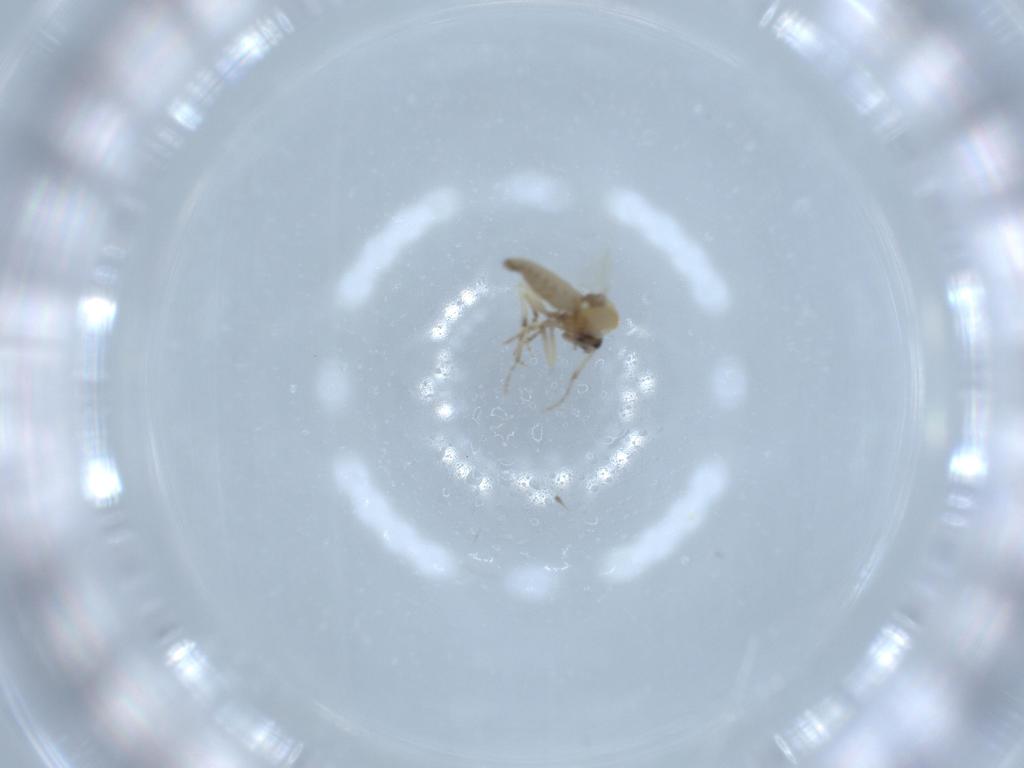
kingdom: Animalia
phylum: Arthropoda
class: Insecta
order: Diptera
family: Ceratopogonidae
